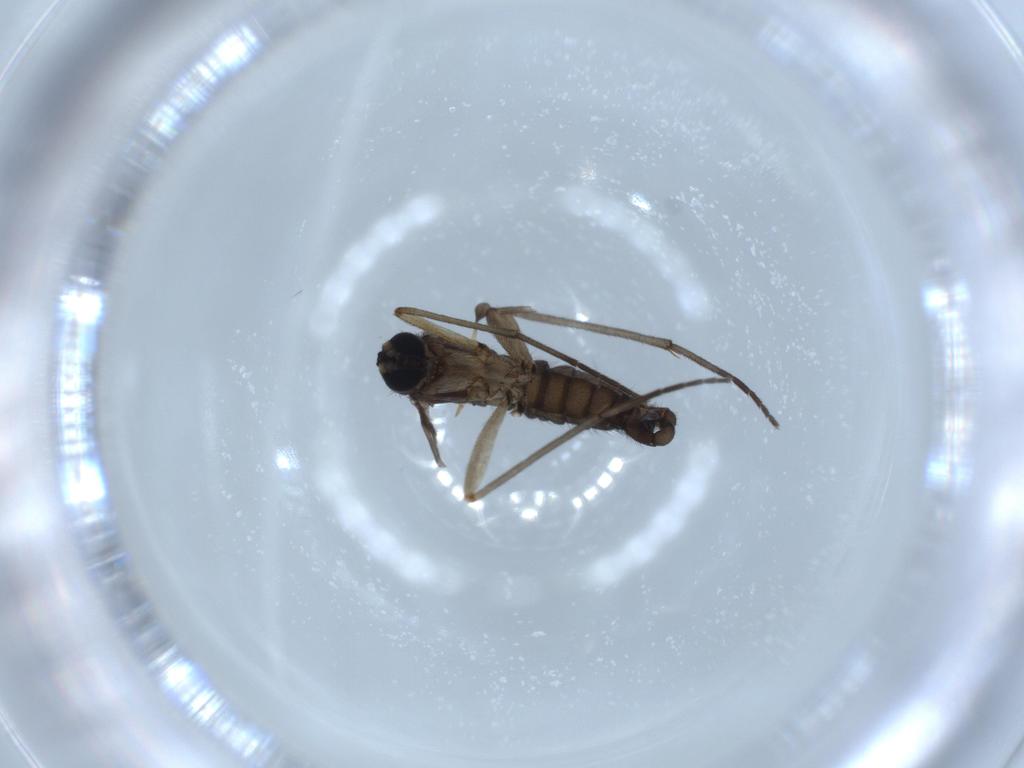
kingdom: Animalia
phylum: Arthropoda
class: Insecta
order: Diptera
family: Sciaridae
